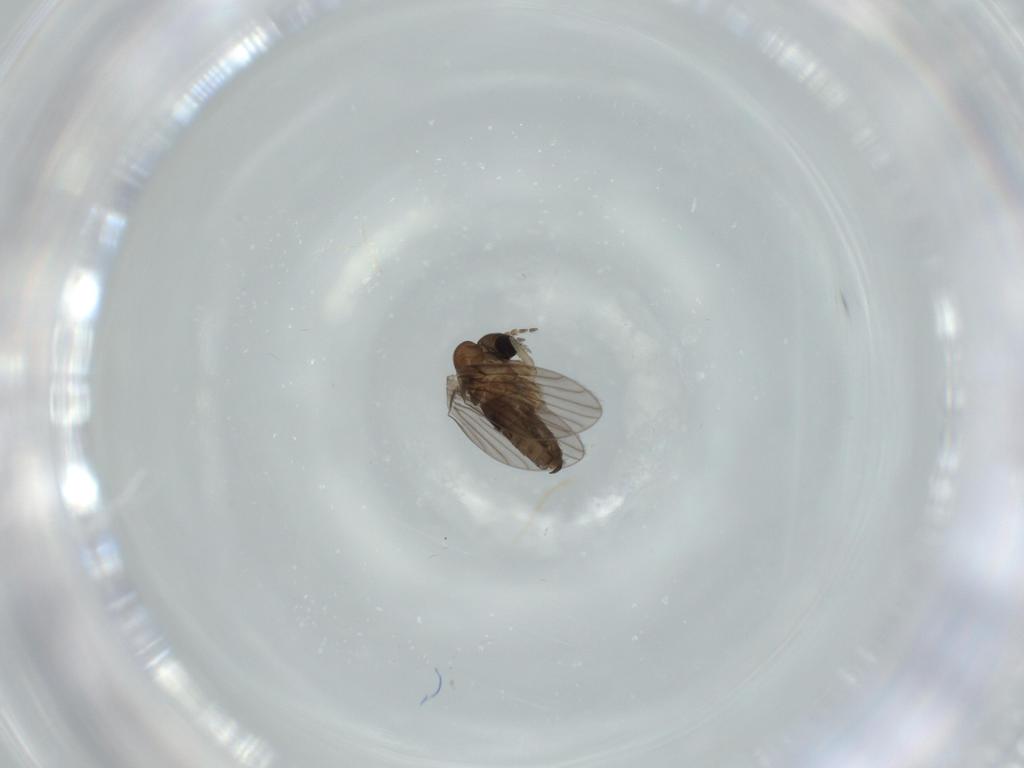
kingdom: Animalia
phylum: Arthropoda
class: Insecta
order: Diptera
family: Psychodidae
